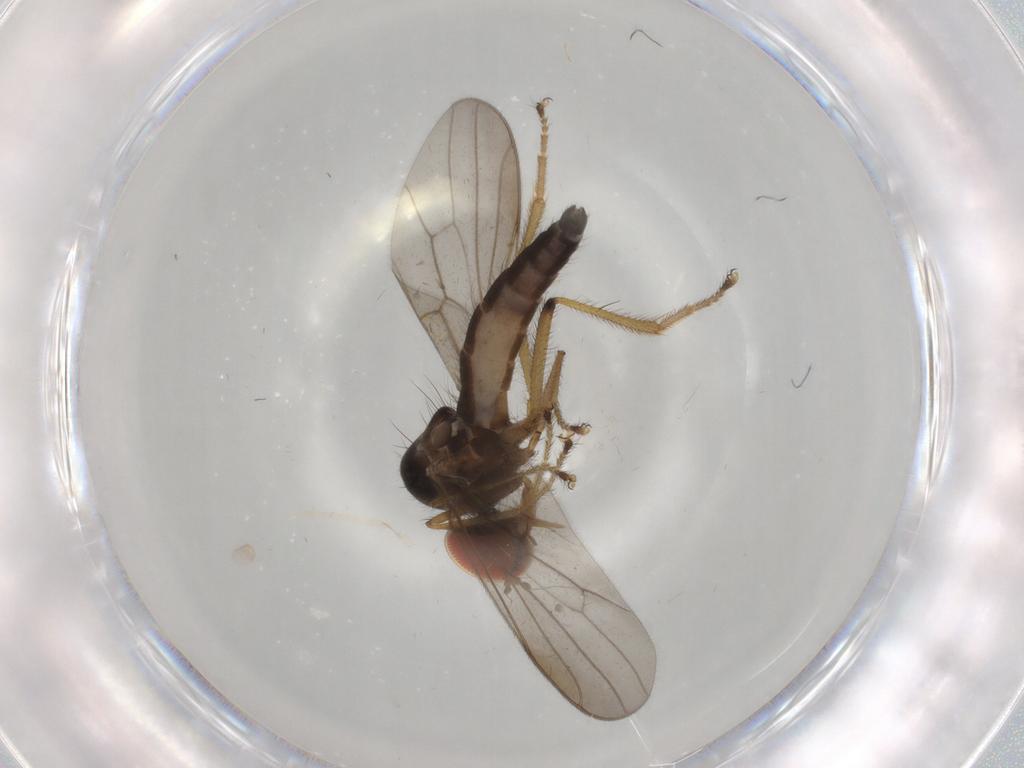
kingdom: Animalia
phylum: Arthropoda
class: Insecta
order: Diptera
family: Hybotidae
